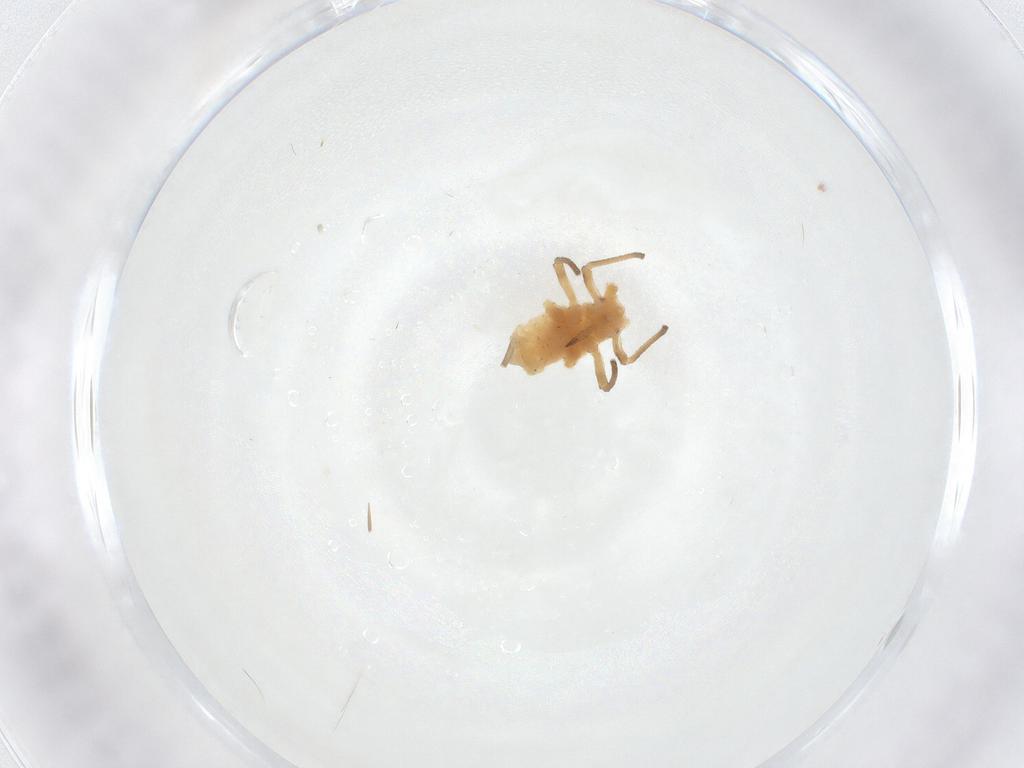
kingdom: Animalia
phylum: Arthropoda
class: Insecta
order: Hemiptera
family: Aphididae
